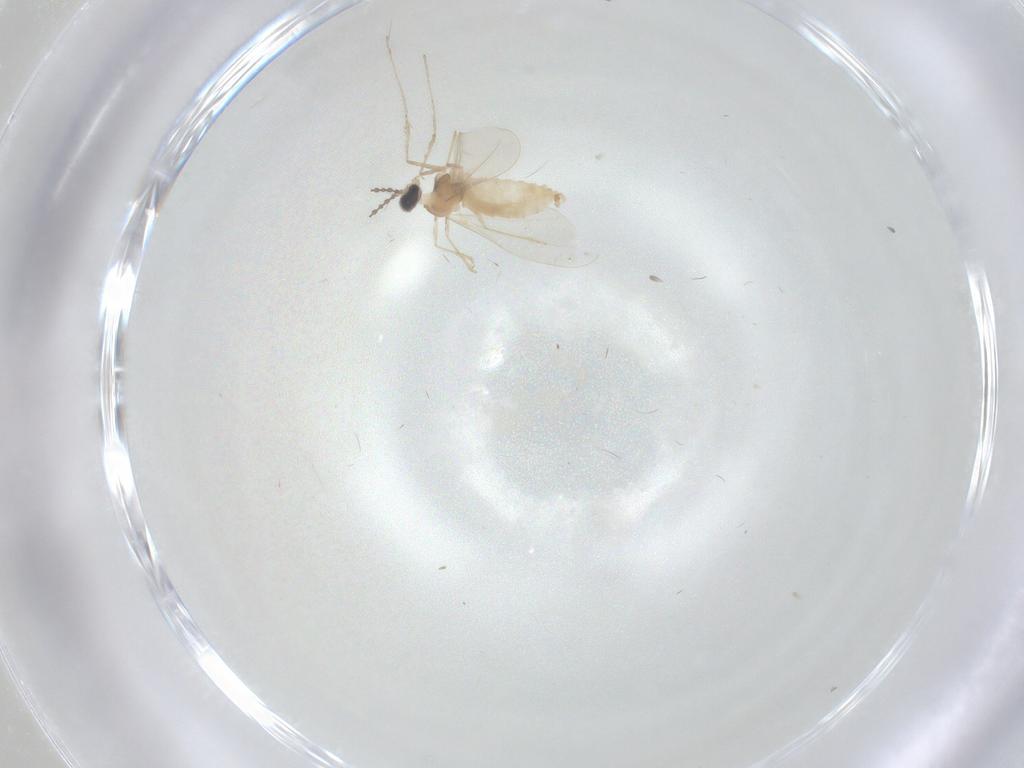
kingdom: Animalia
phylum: Arthropoda
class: Insecta
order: Diptera
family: Cecidomyiidae
